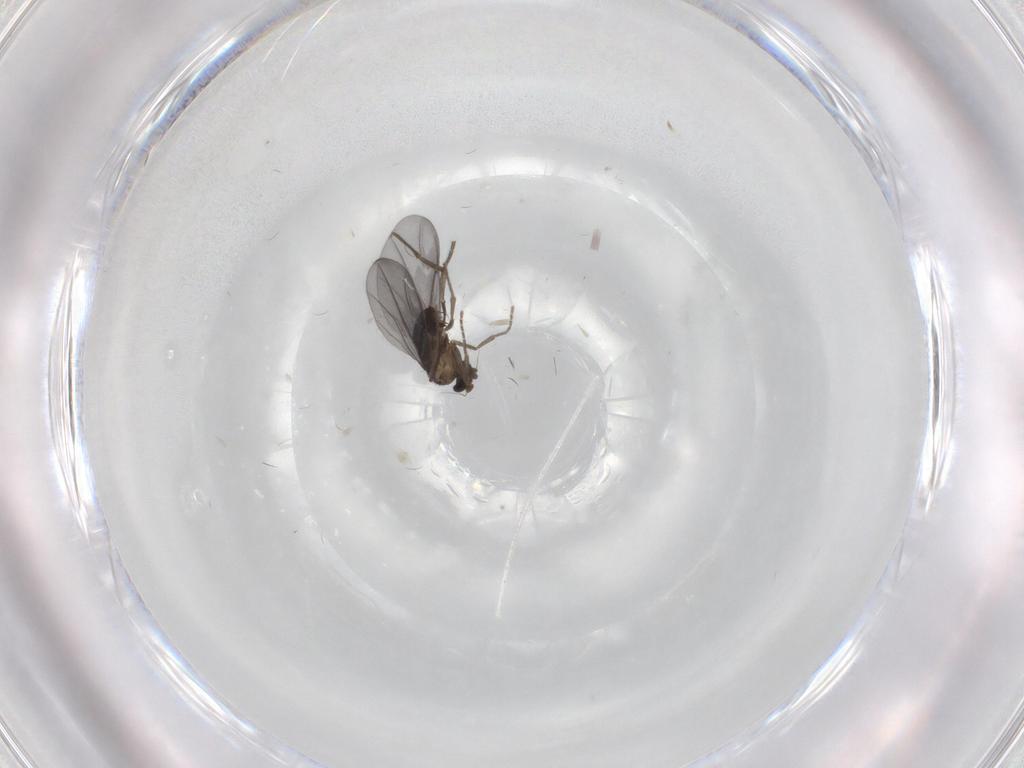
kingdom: Animalia
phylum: Arthropoda
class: Insecta
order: Diptera
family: Phoridae
